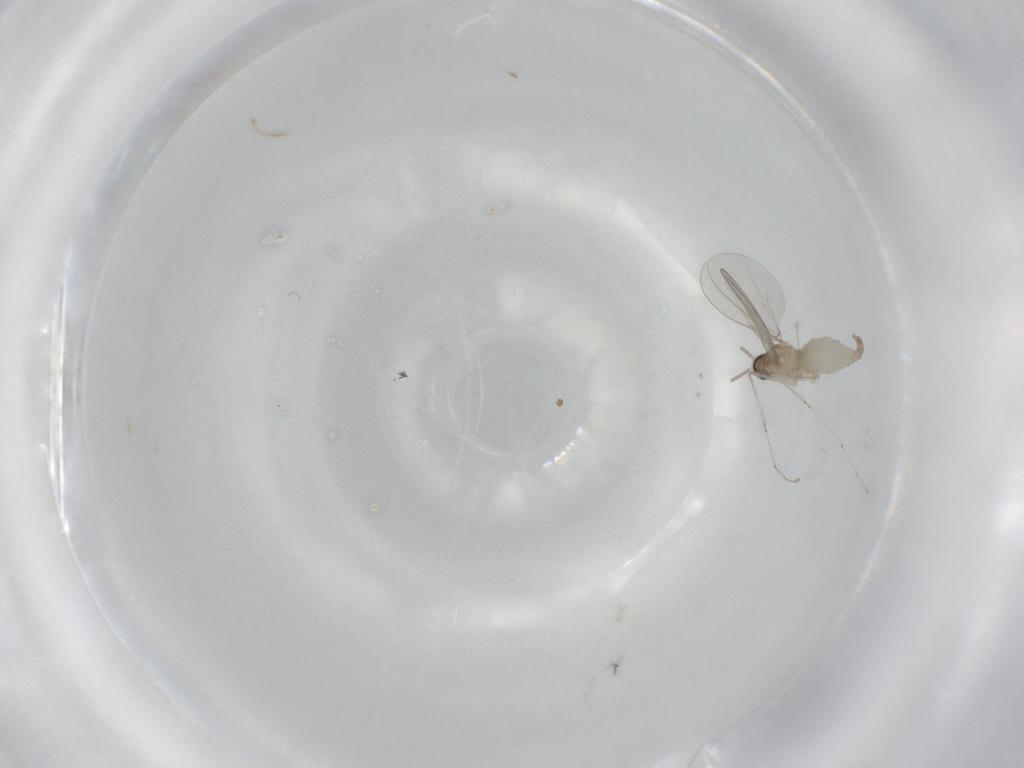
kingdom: Animalia
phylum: Arthropoda
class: Insecta
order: Diptera
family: Cecidomyiidae
